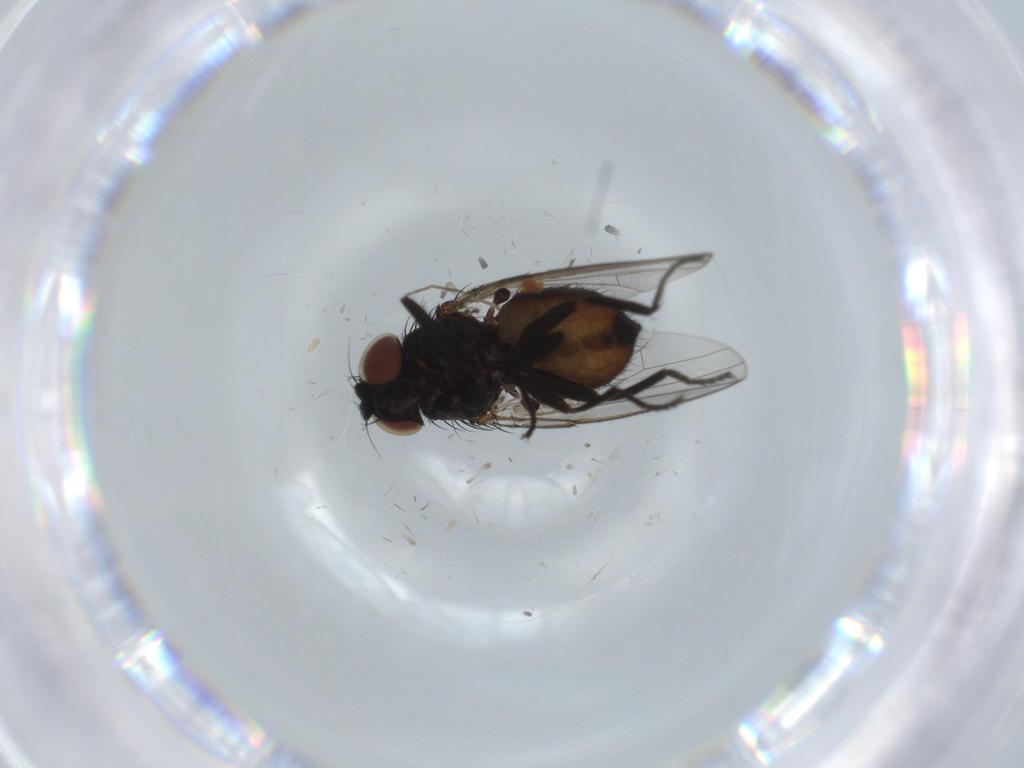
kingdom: Animalia
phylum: Arthropoda
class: Insecta
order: Diptera
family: Milichiidae
